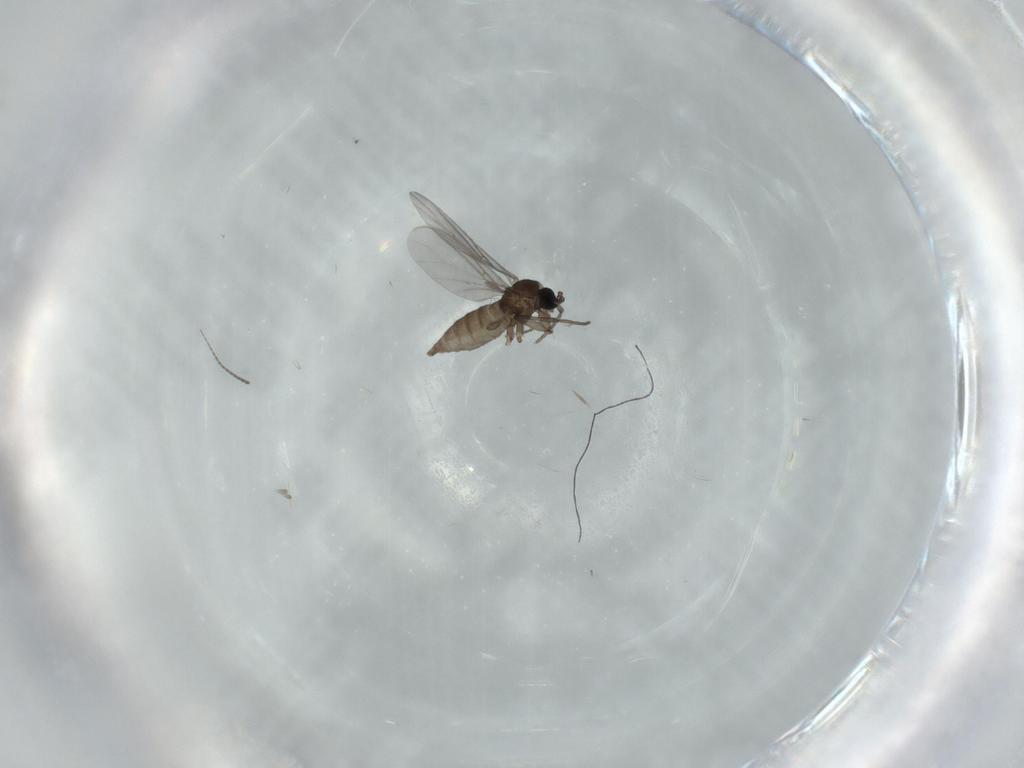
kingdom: Animalia
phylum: Arthropoda
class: Insecta
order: Diptera
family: Sciaridae
